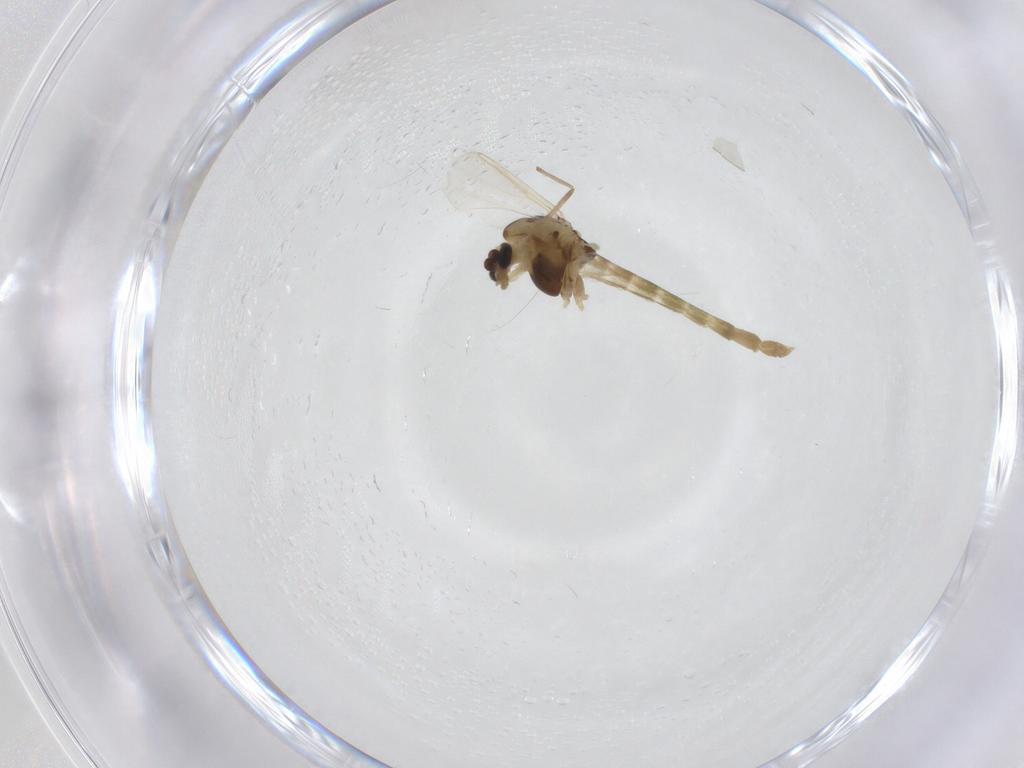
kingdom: Animalia
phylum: Arthropoda
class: Insecta
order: Diptera
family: Chironomidae
